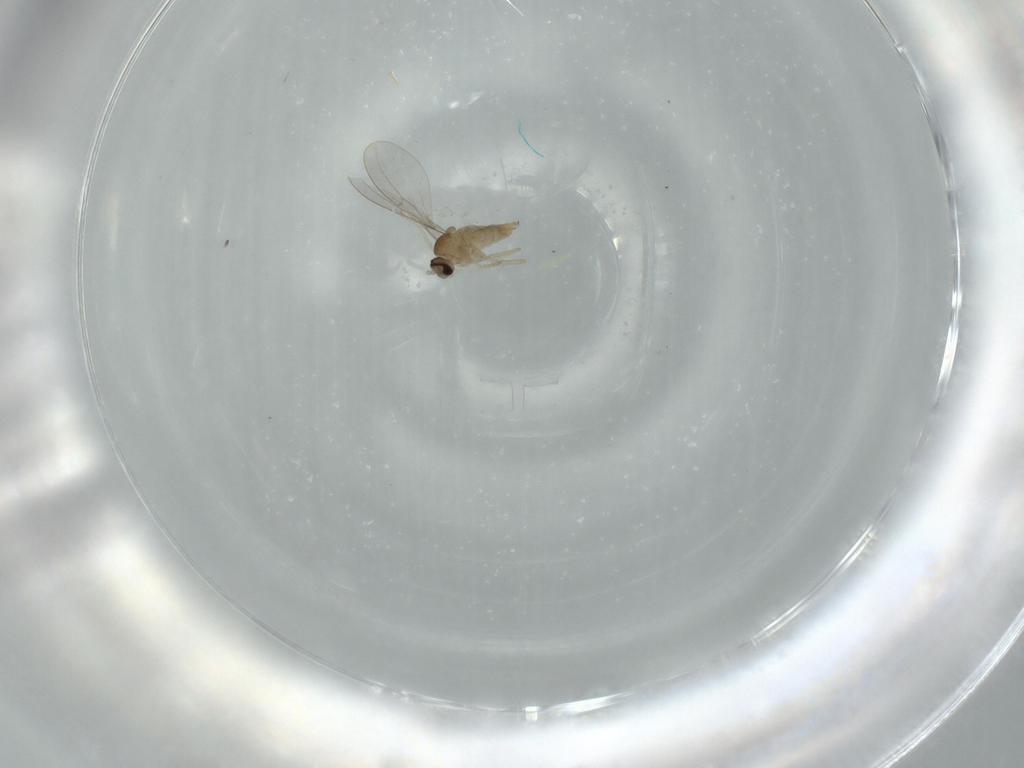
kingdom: Animalia
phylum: Arthropoda
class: Insecta
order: Diptera
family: Cecidomyiidae
